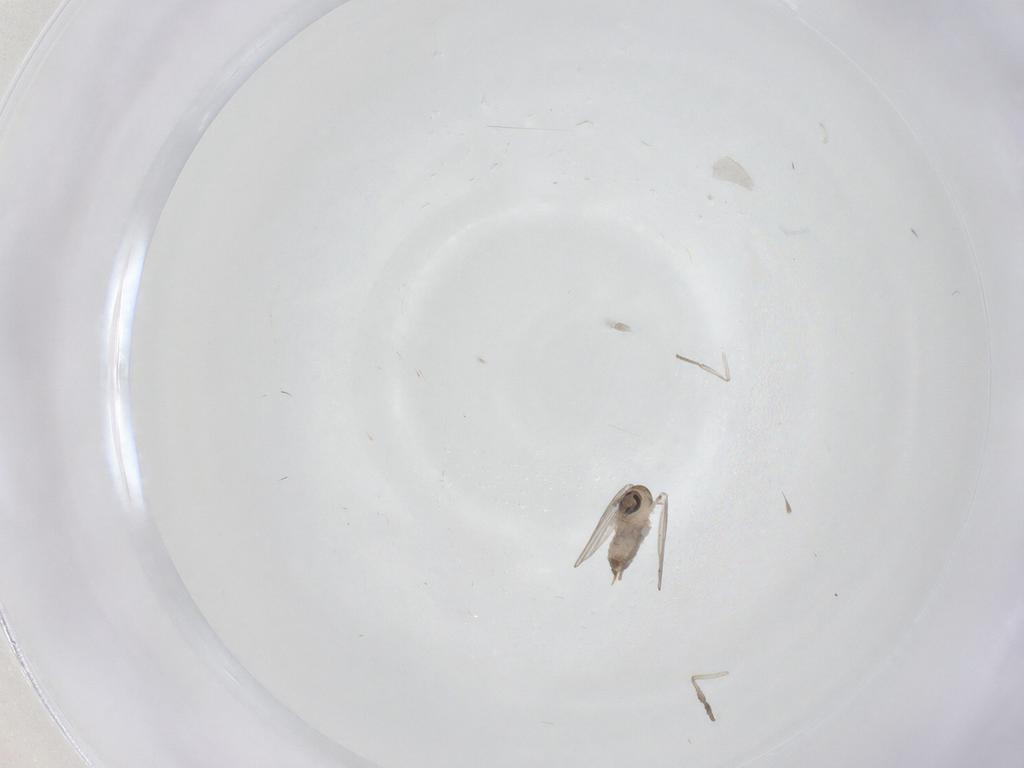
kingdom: Animalia
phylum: Arthropoda
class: Insecta
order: Diptera
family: Psychodidae
